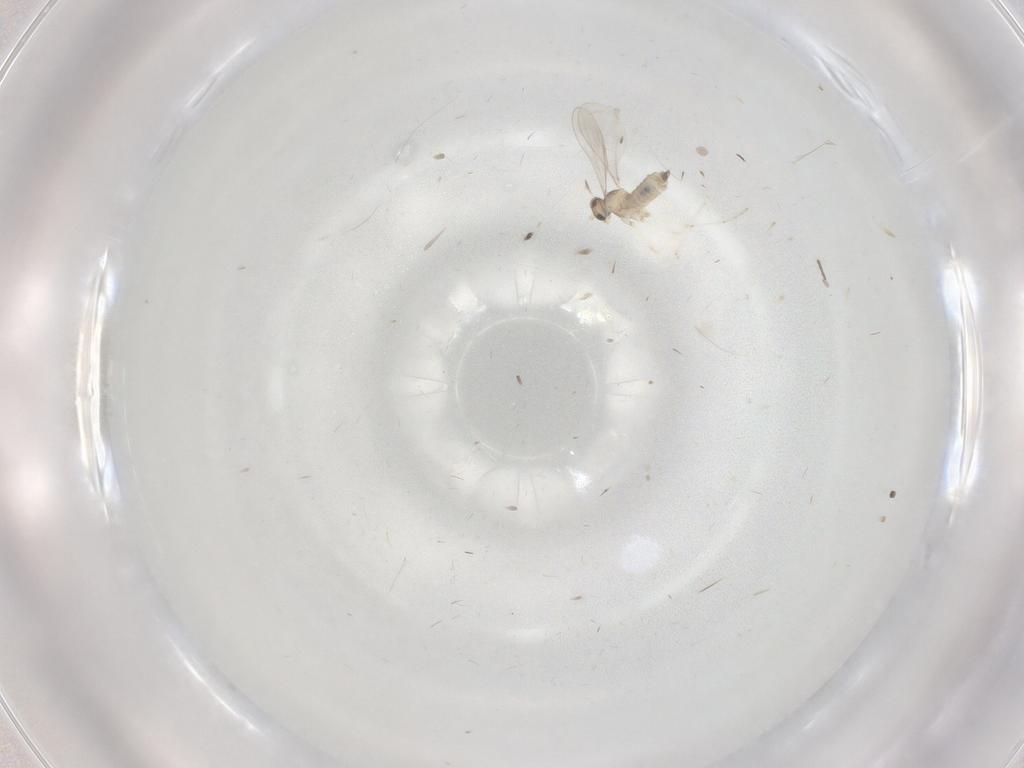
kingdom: Animalia
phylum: Arthropoda
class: Insecta
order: Diptera
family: Cecidomyiidae
